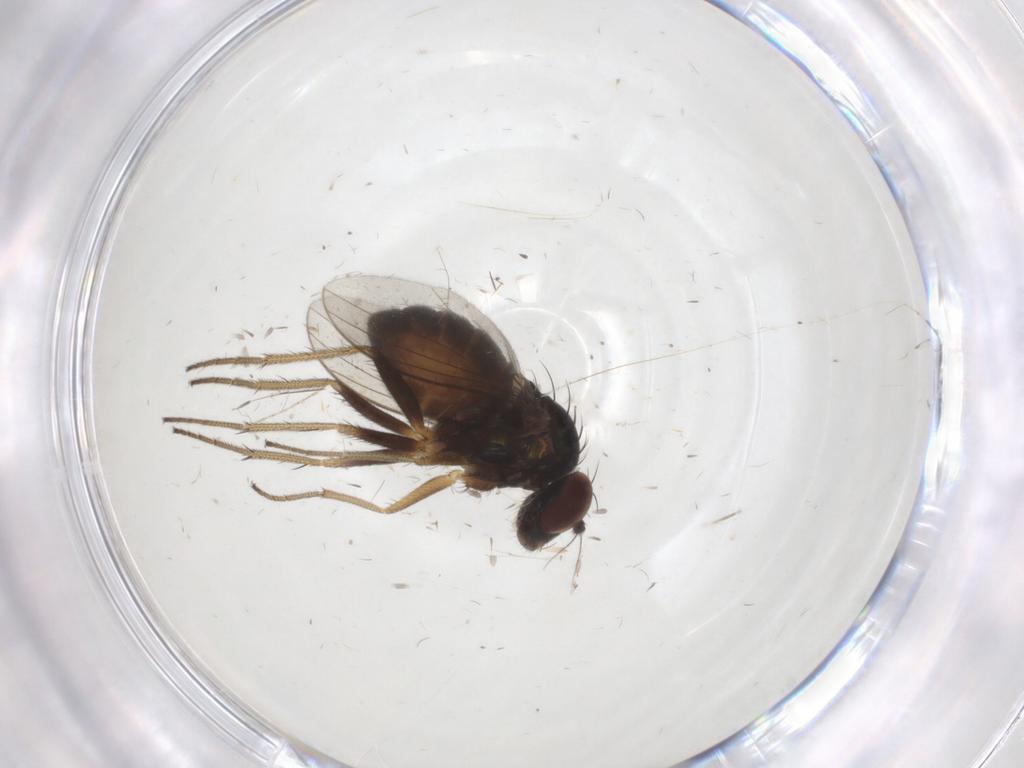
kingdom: Animalia
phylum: Arthropoda
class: Insecta
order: Diptera
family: Dolichopodidae
